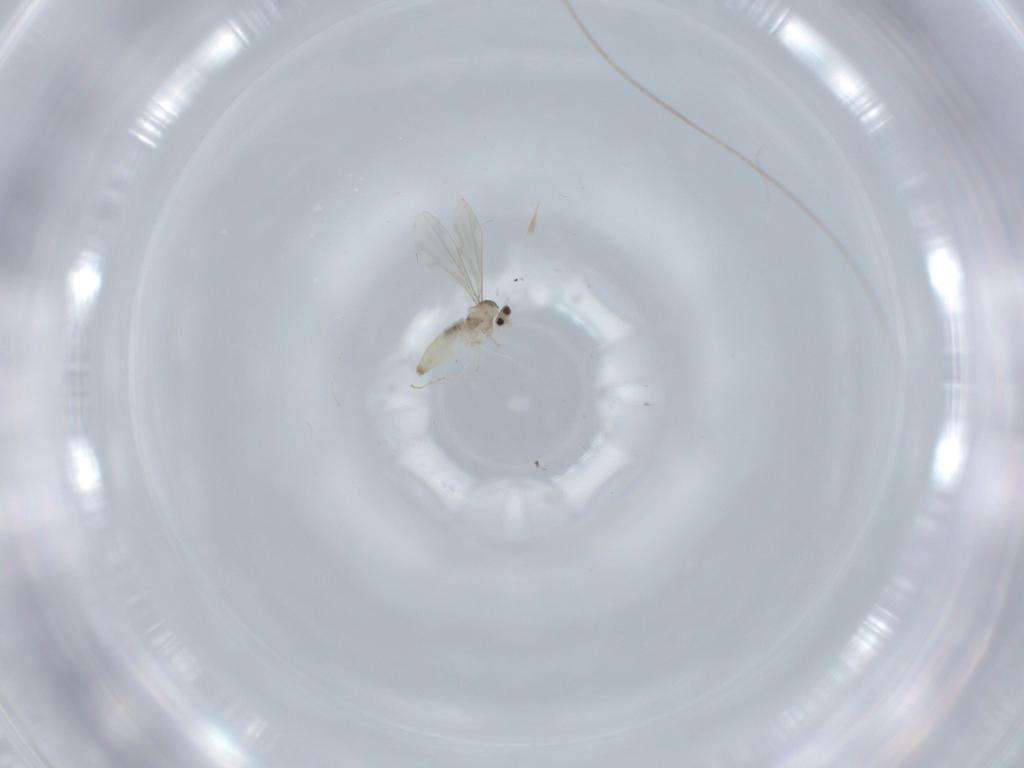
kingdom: Animalia
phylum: Arthropoda
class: Insecta
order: Diptera
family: Cecidomyiidae
